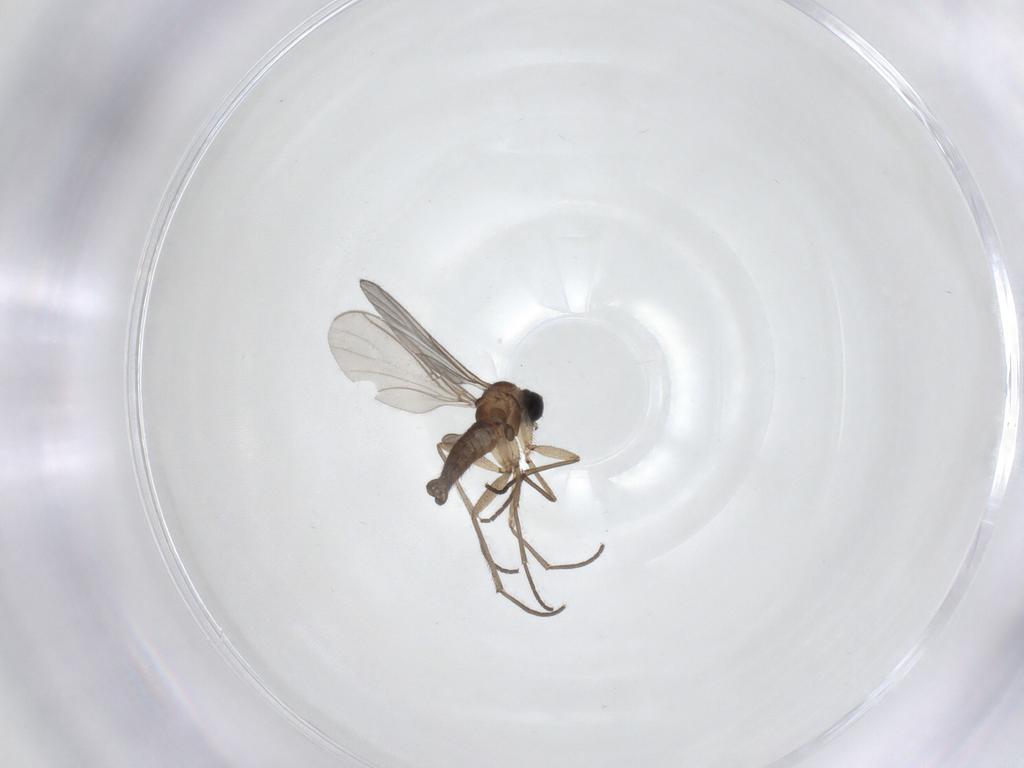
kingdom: Animalia
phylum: Arthropoda
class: Insecta
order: Diptera
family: Sciaridae
